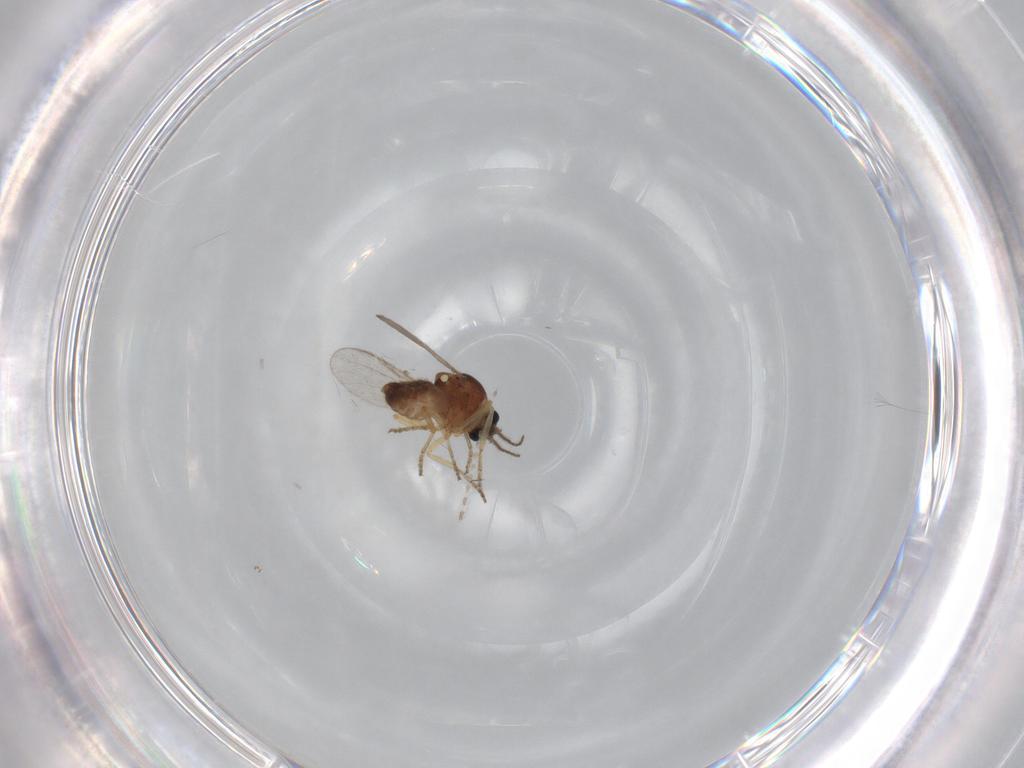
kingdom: Animalia
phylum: Arthropoda
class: Insecta
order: Diptera
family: Ceratopogonidae
